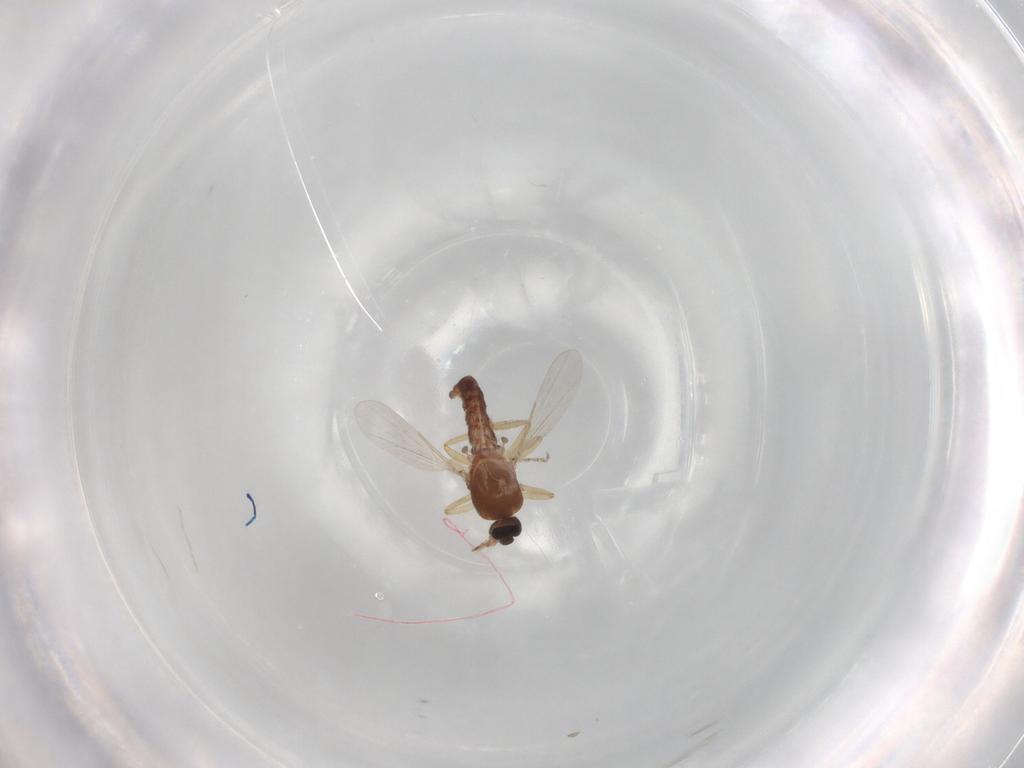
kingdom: Animalia
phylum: Arthropoda
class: Insecta
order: Diptera
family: Ceratopogonidae
